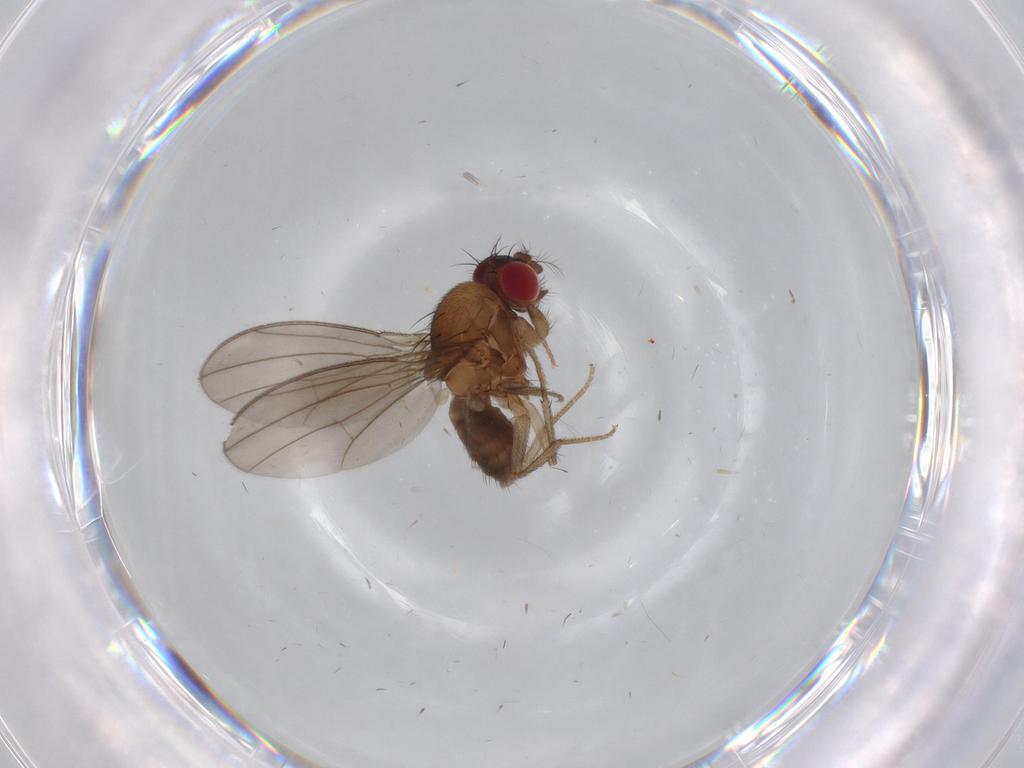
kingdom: Animalia
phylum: Arthropoda
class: Insecta
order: Diptera
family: Drosophilidae
